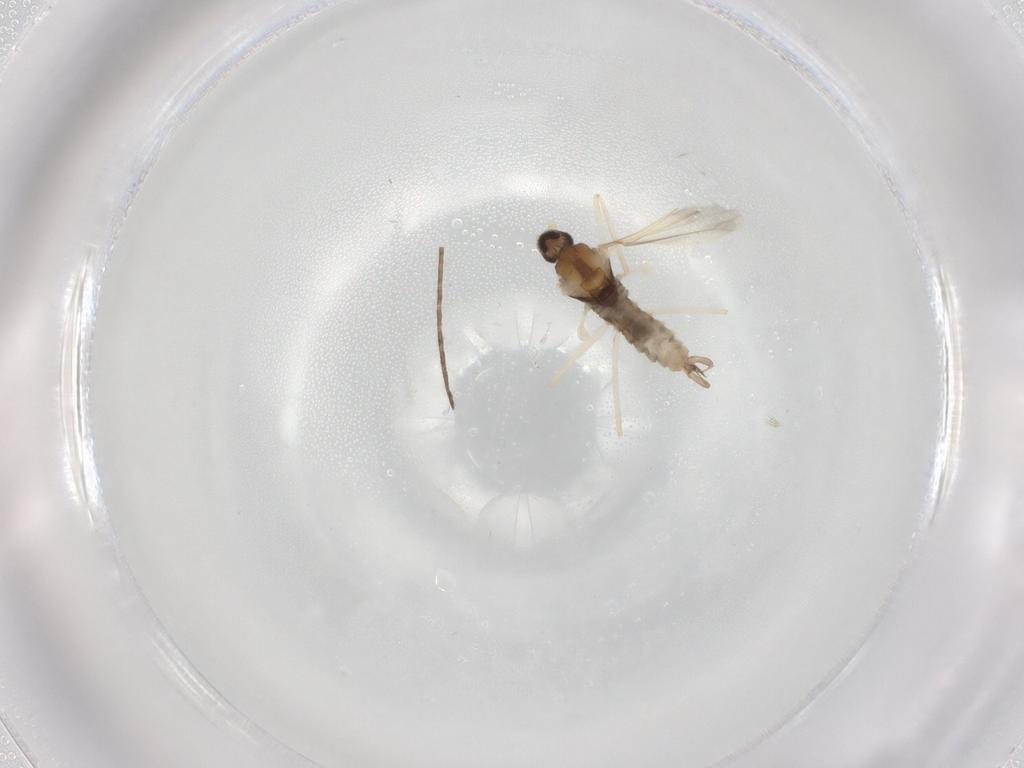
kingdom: Animalia
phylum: Arthropoda
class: Insecta
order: Diptera
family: Cecidomyiidae
